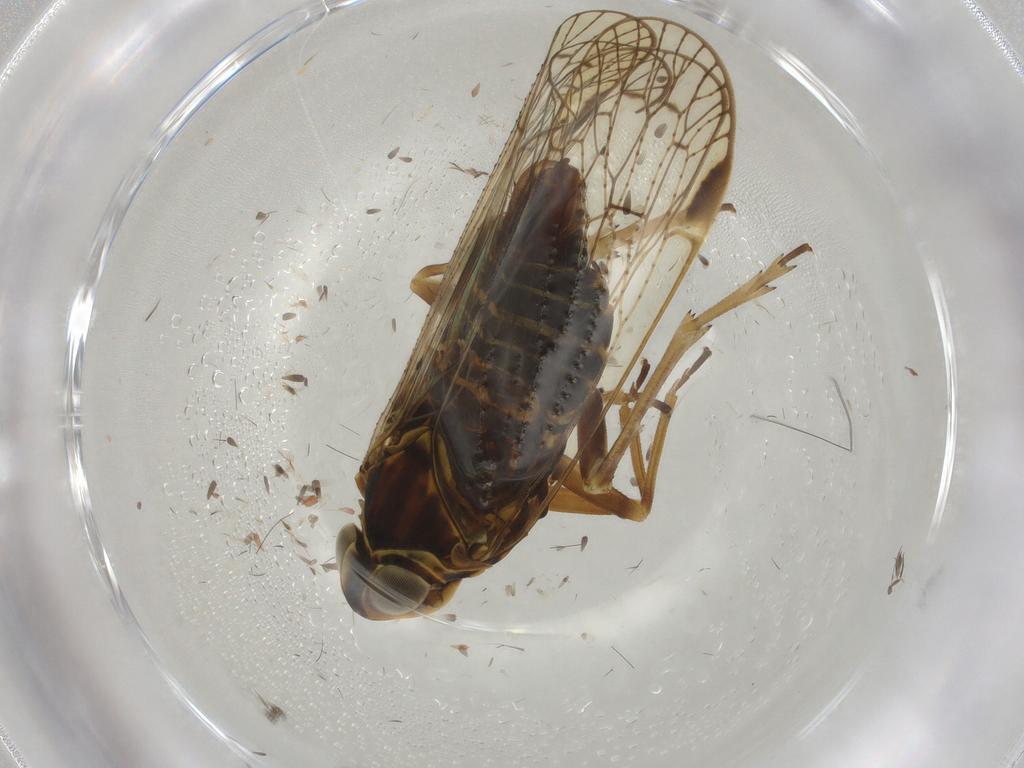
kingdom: Animalia
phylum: Arthropoda
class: Insecta
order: Hemiptera
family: Cixiidae
